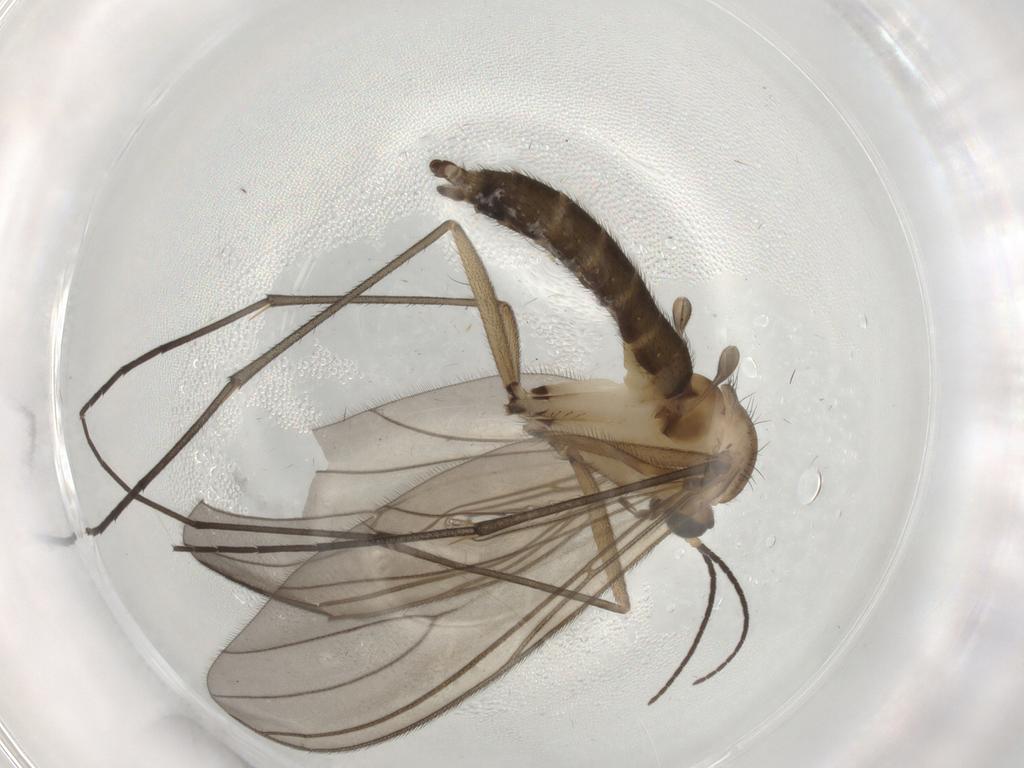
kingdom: Animalia
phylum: Arthropoda
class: Insecta
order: Diptera
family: Sciaridae
